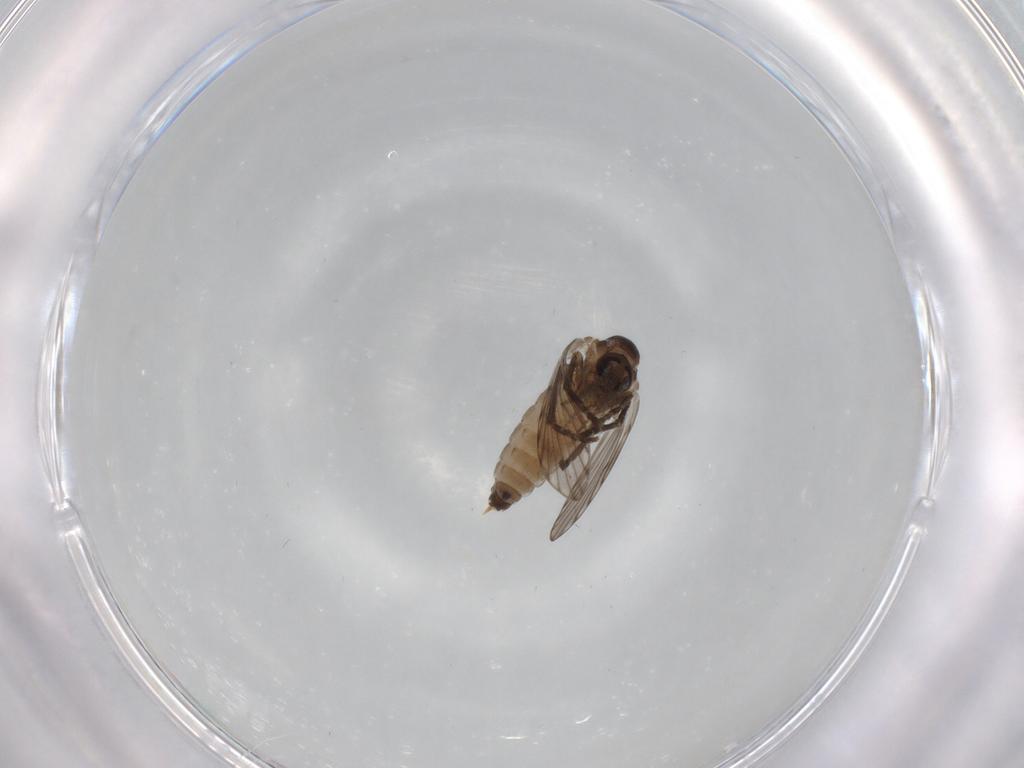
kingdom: Animalia
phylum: Arthropoda
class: Insecta
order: Diptera
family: Psychodidae
